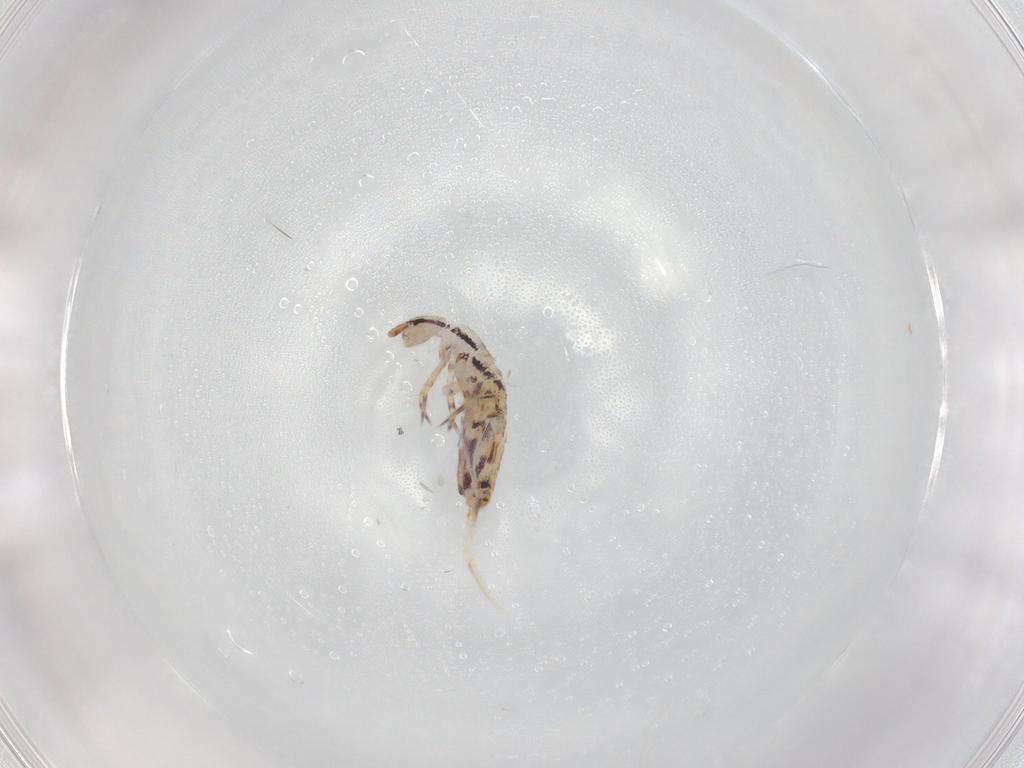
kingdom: Animalia
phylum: Arthropoda
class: Collembola
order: Entomobryomorpha
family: Entomobryidae
